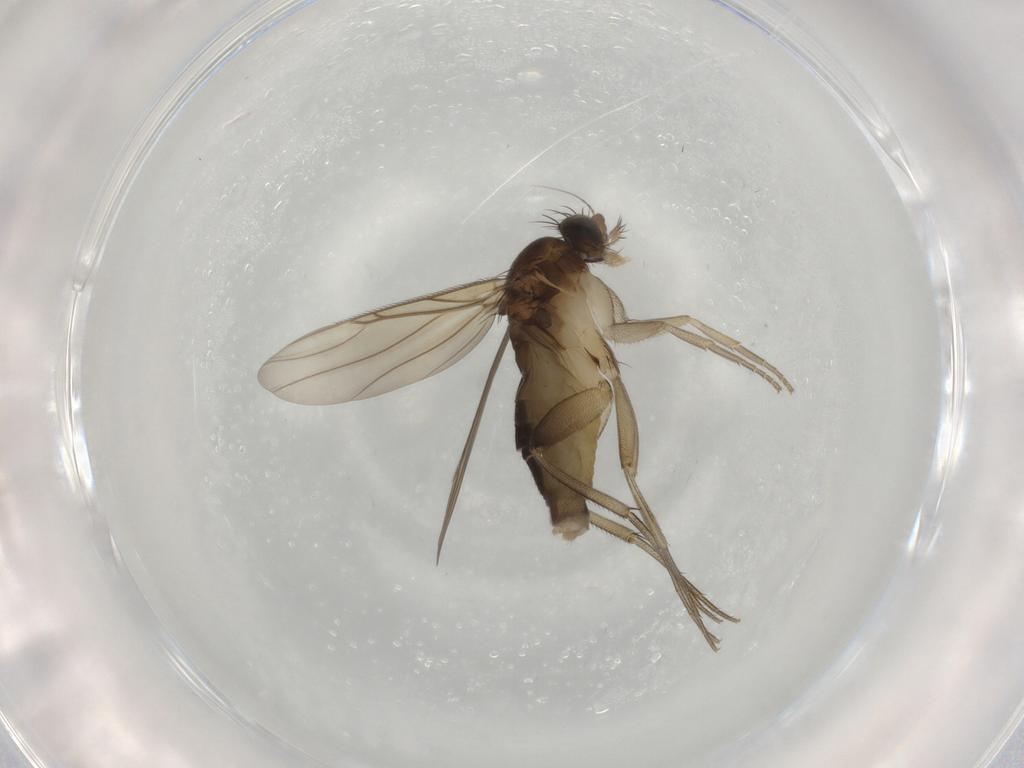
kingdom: Animalia
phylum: Arthropoda
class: Insecta
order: Diptera
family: Phoridae
